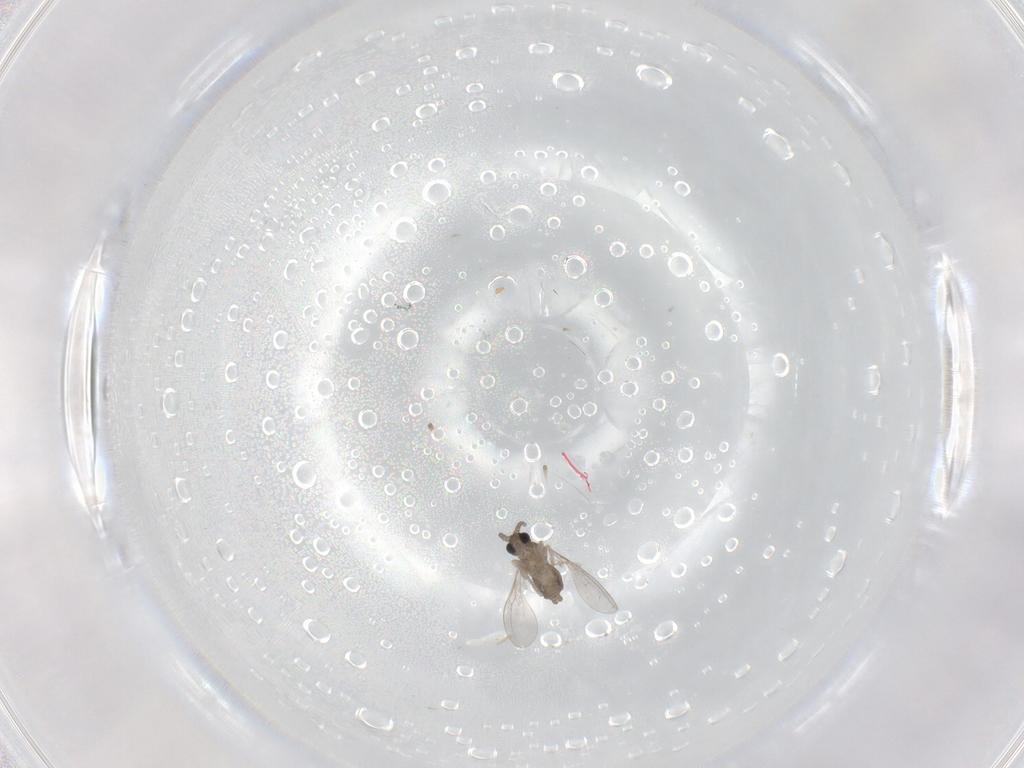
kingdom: Animalia
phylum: Arthropoda
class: Insecta
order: Diptera
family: Cecidomyiidae
